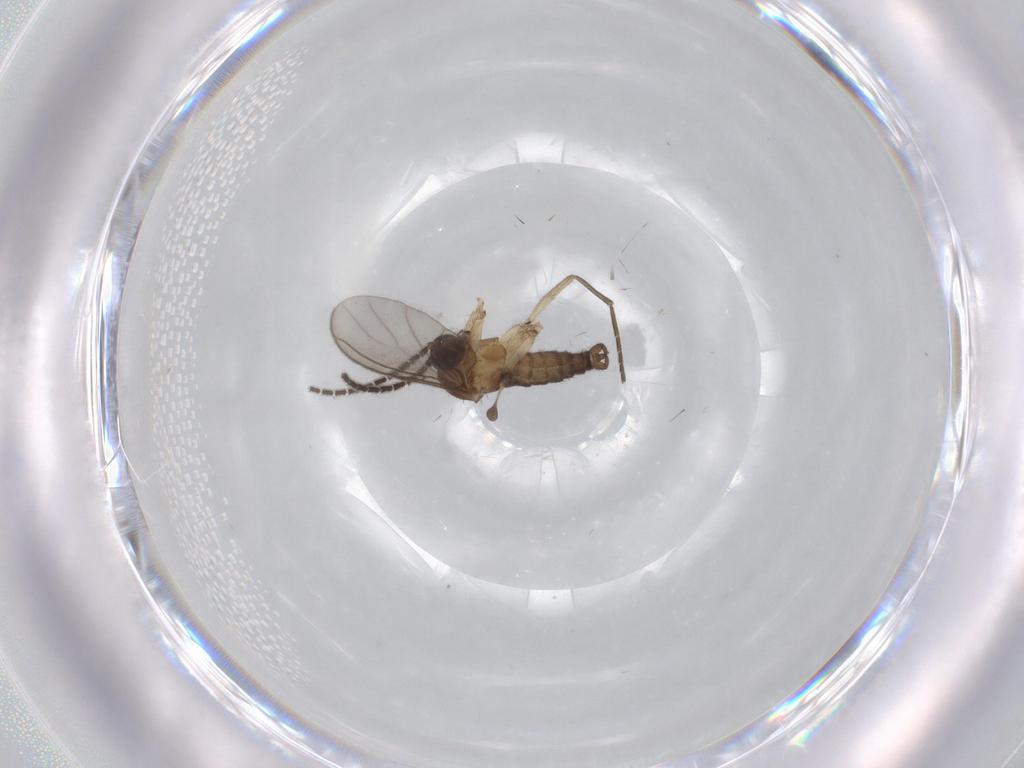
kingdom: Animalia
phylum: Arthropoda
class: Insecta
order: Diptera
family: Sciaridae
